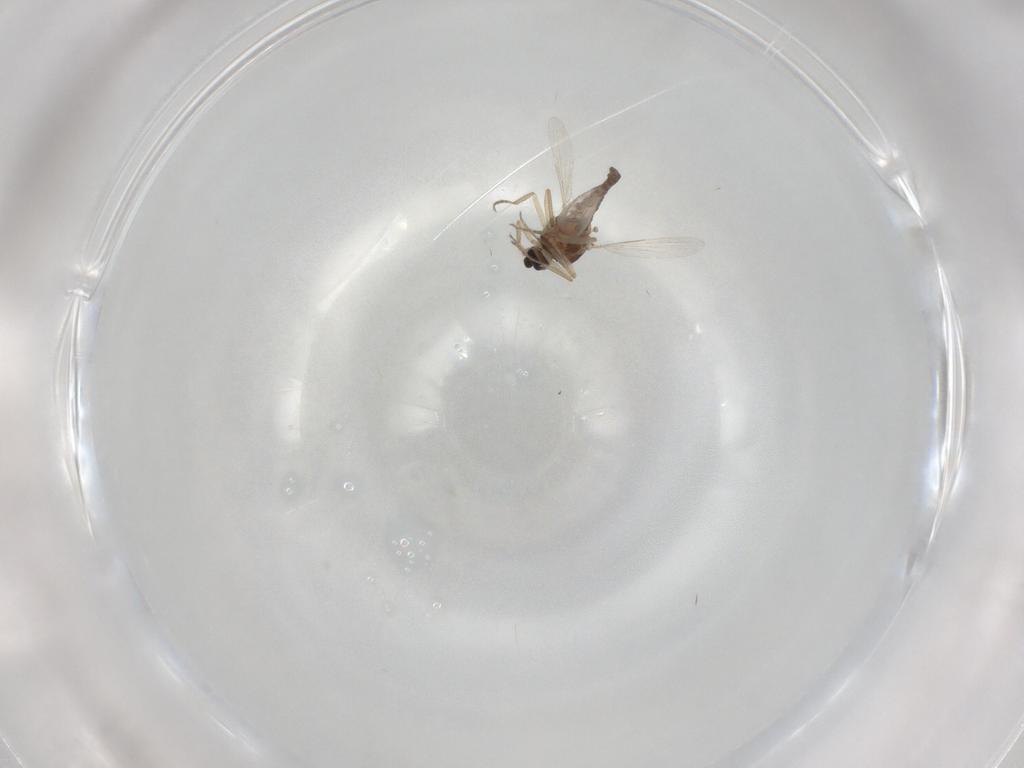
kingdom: Animalia
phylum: Arthropoda
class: Insecta
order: Diptera
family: Ceratopogonidae
